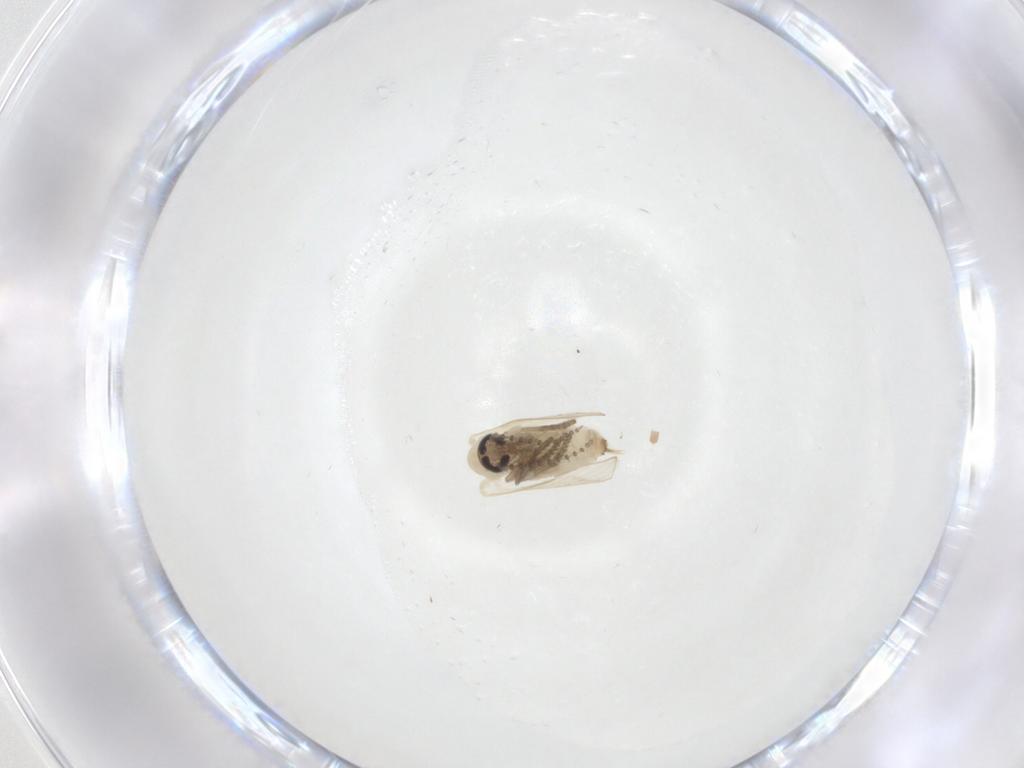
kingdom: Animalia
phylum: Arthropoda
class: Insecta
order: Diptera
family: Psychodidae
